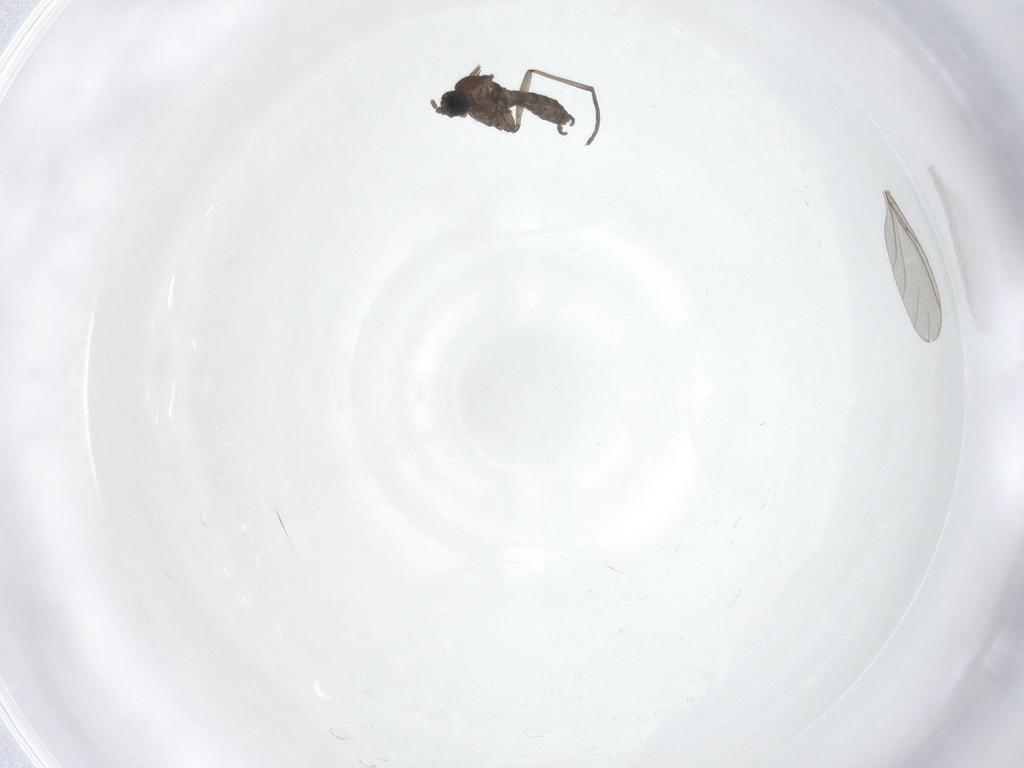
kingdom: Animalia
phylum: Arthropoda
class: Insecta
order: Diptera
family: Sciaridae
